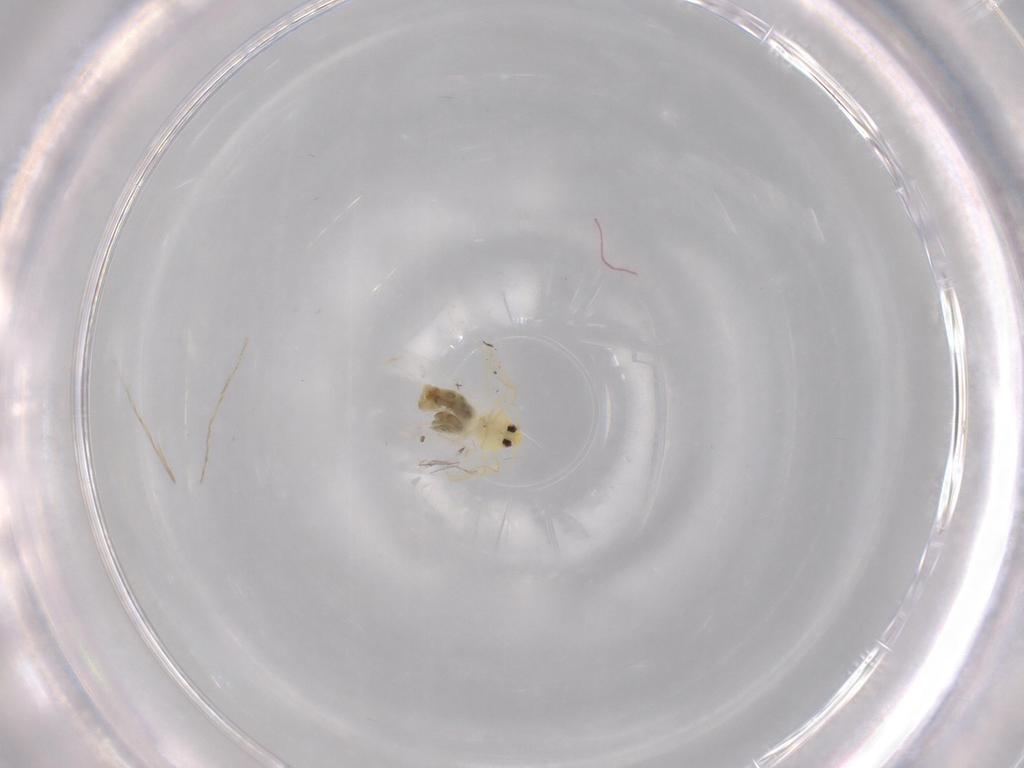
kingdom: Animalia
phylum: Arthropoda
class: Insecta
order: Hemiptera
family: Aleyrodidae
